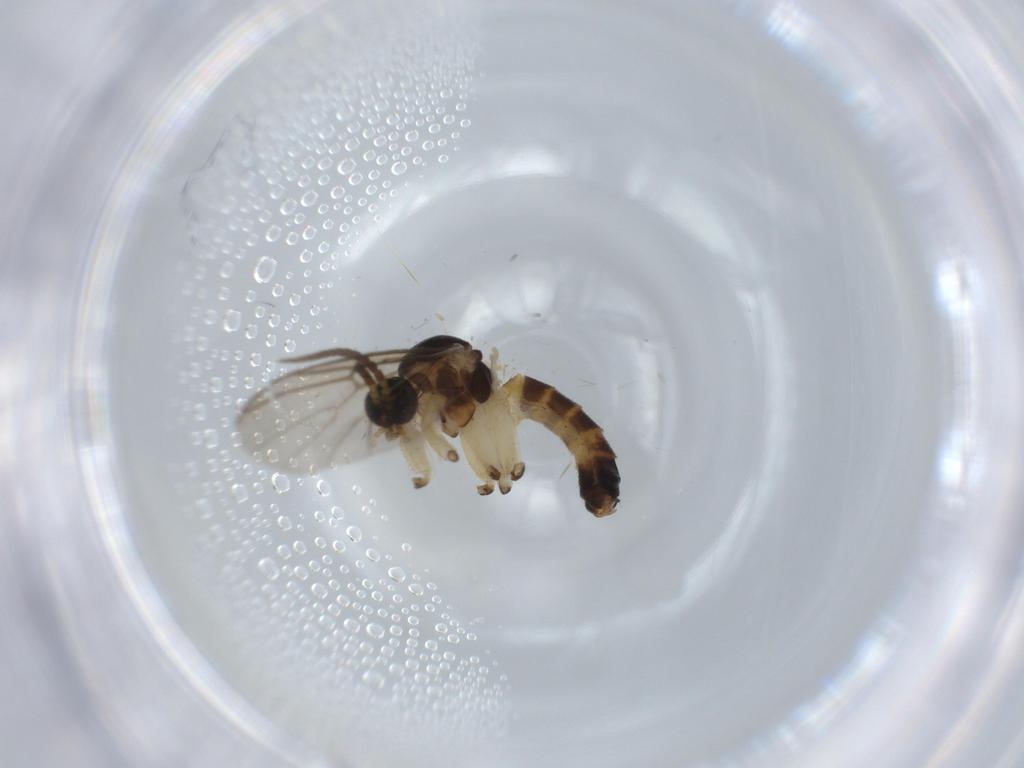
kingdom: Animalia
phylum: Arthropoda
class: Insecta
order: Diptera
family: Mycetophilidae
